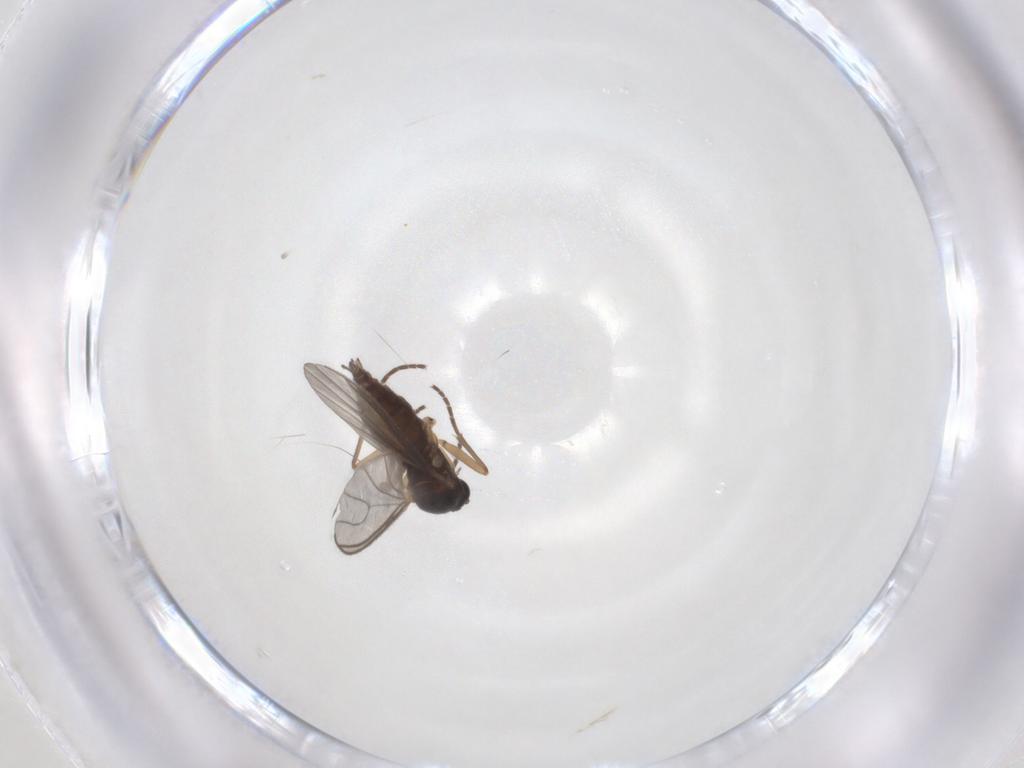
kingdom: Animalia
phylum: Arthropoda
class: Insecta
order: Diptera
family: Sciaridae
